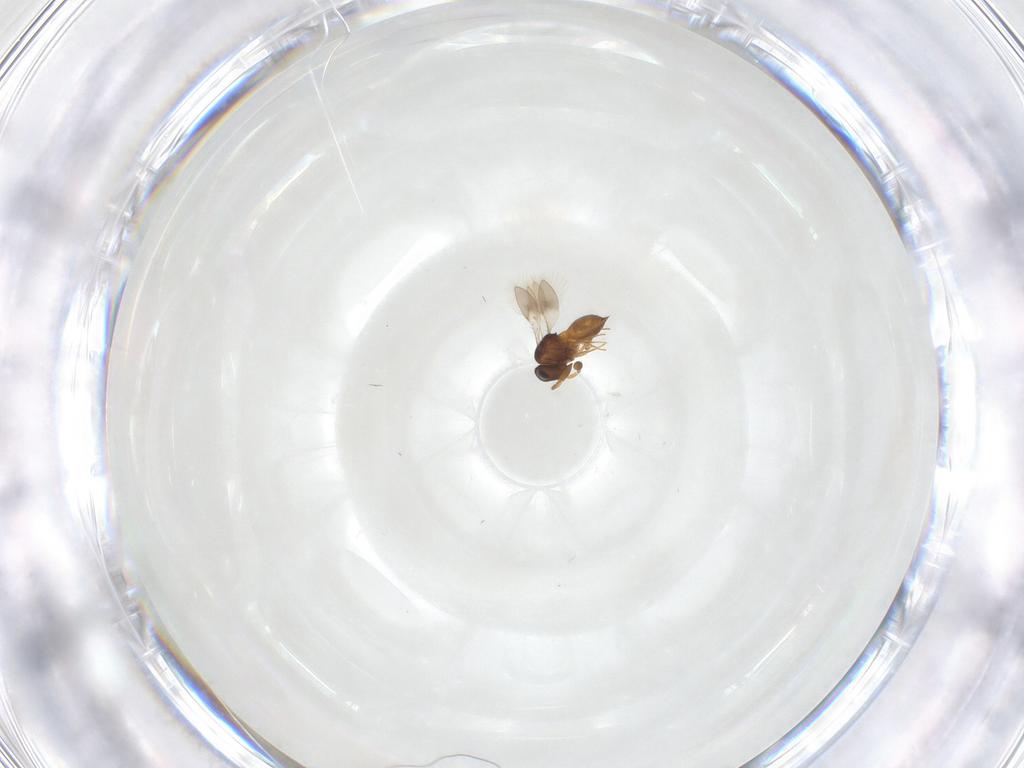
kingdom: Animalia
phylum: Arthropoda
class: Insecta
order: Hymenoptera
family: Scelionidae
